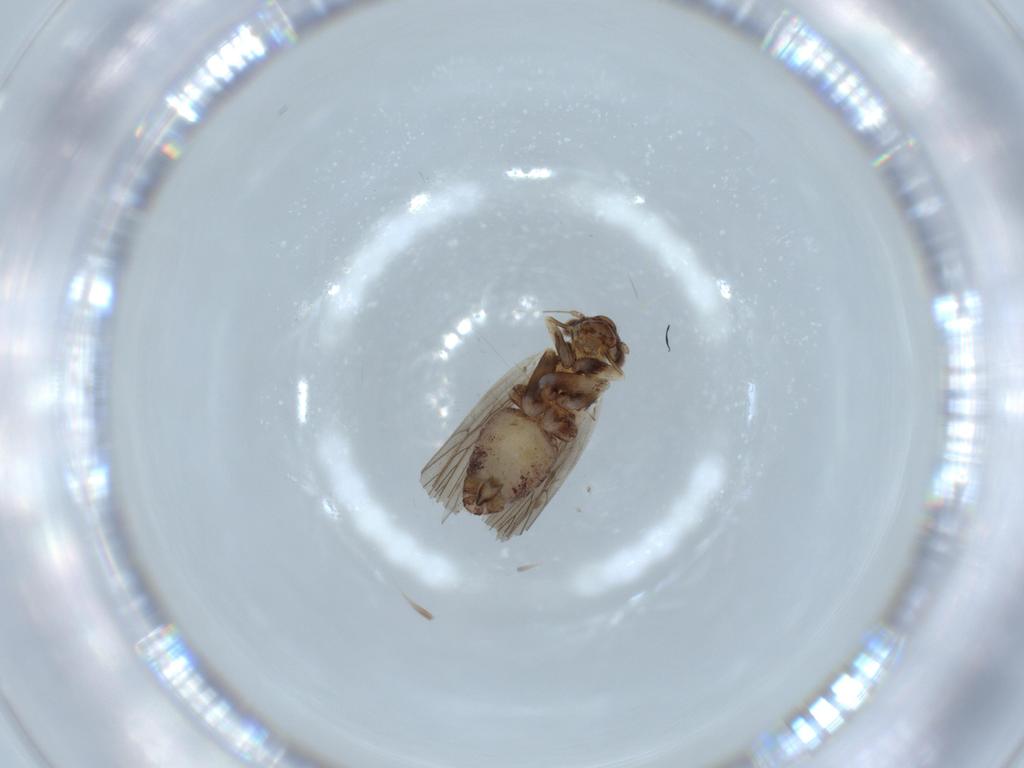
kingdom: Animalia
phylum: Arthropoda
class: Insecta
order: Psocodea
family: Lepidopsocidae
